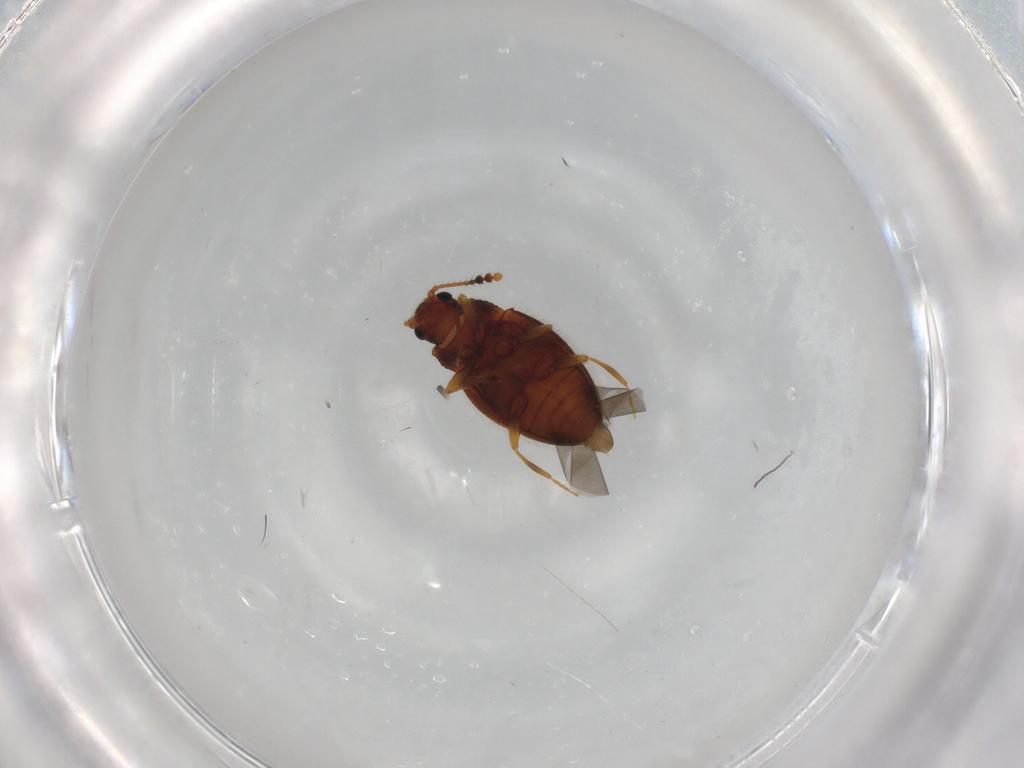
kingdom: Animalia
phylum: Arthropoda
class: Insecta
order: Coleoptera
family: Erotylidae
